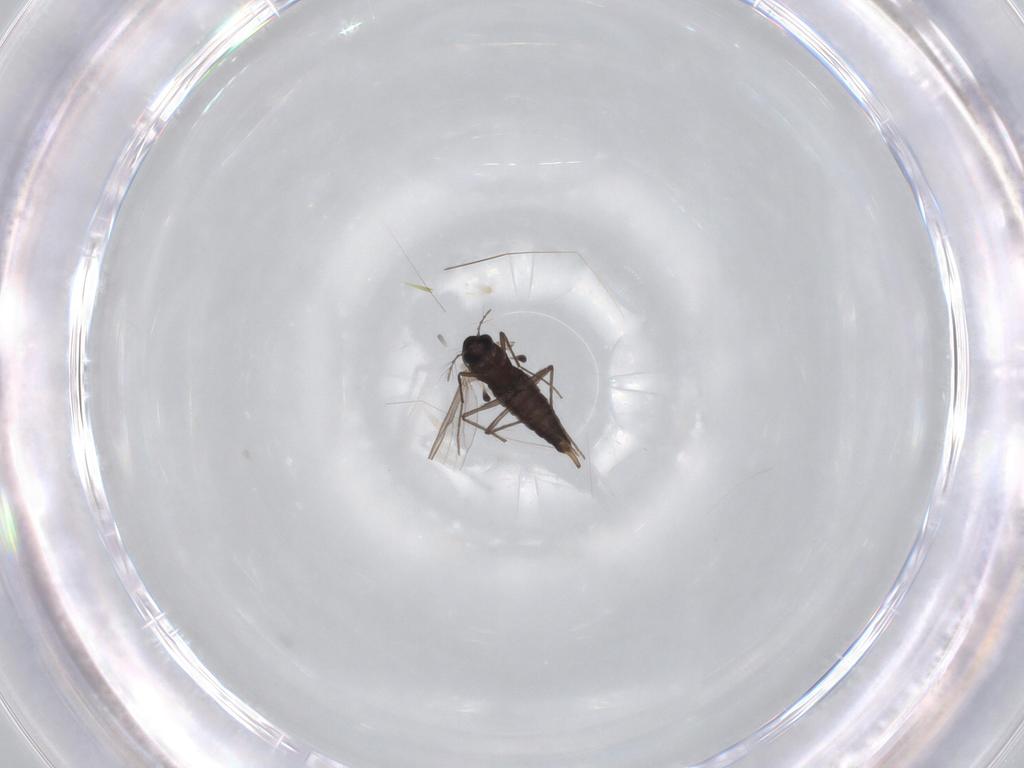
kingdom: Animalia
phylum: Arthropoda
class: Insecta
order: Diptera
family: Chironomidae
